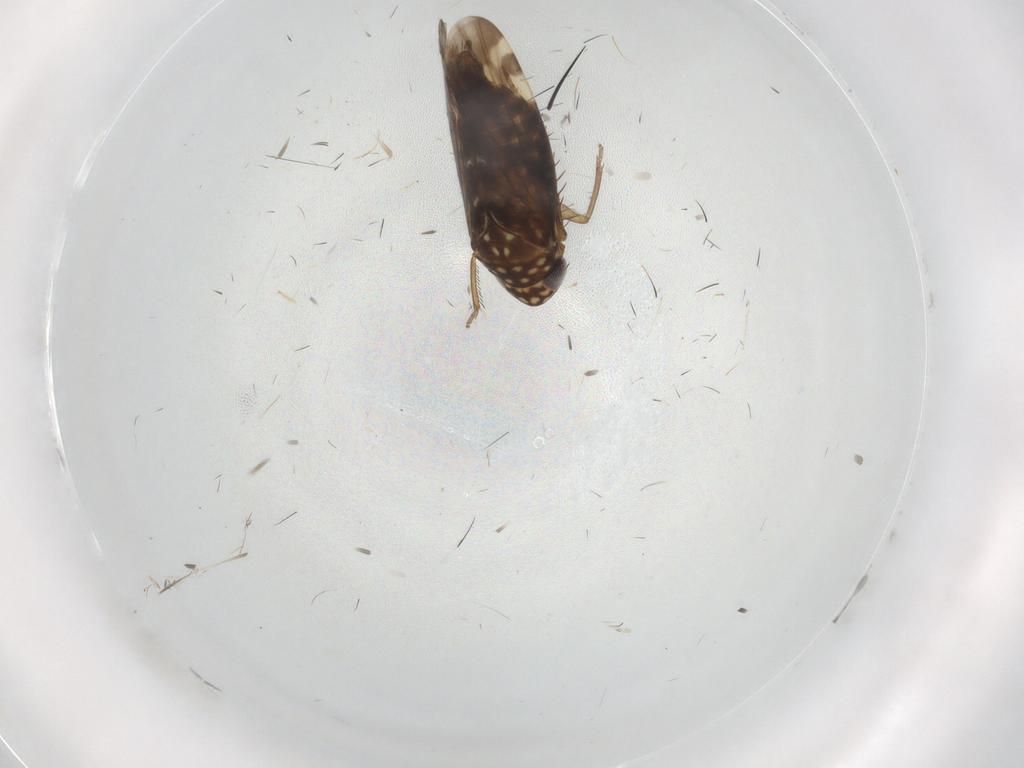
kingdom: Animalia
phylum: Arthropoda
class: Insecta
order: Hemiptera
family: Cicadellidae
